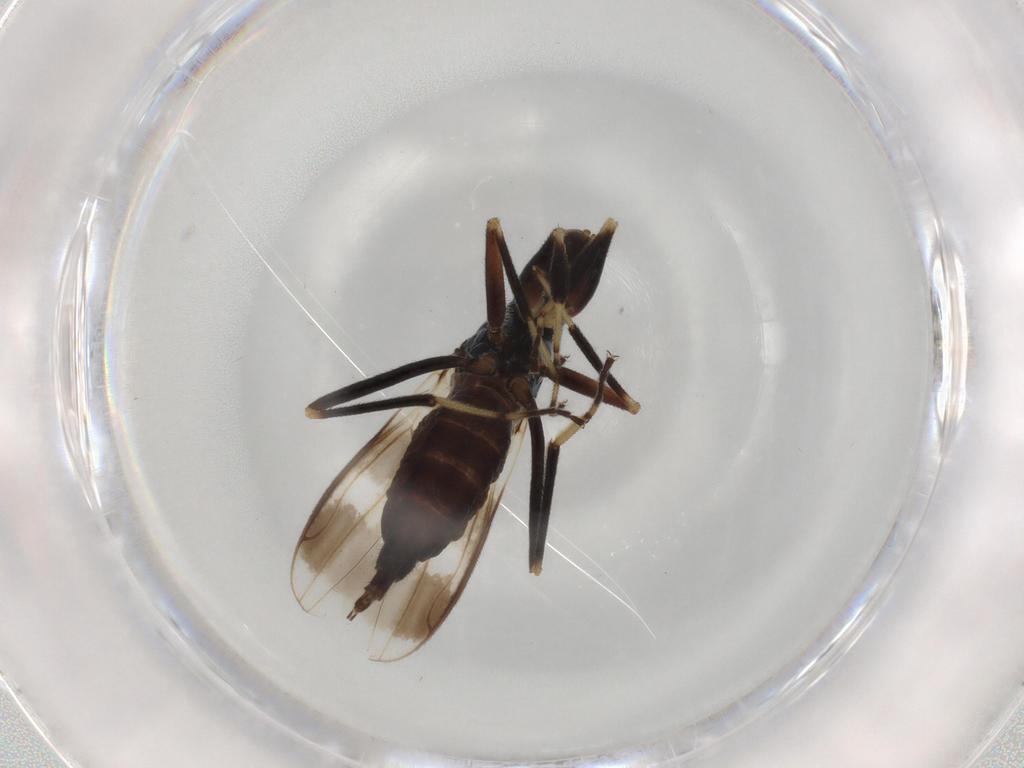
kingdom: Animalia
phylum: Arthropoda
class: Insecta
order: Diptera
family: Hybotidae
